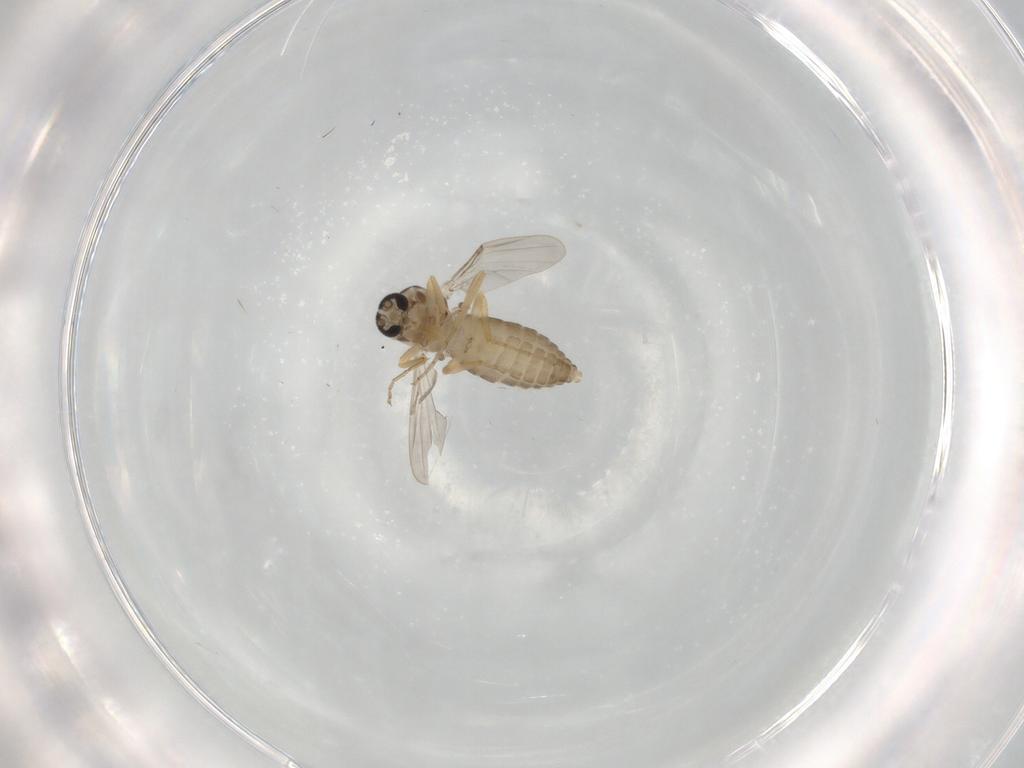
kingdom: Animalia
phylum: Arthropoda
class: Insecta
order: Diptera
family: Ceratopogonidae
